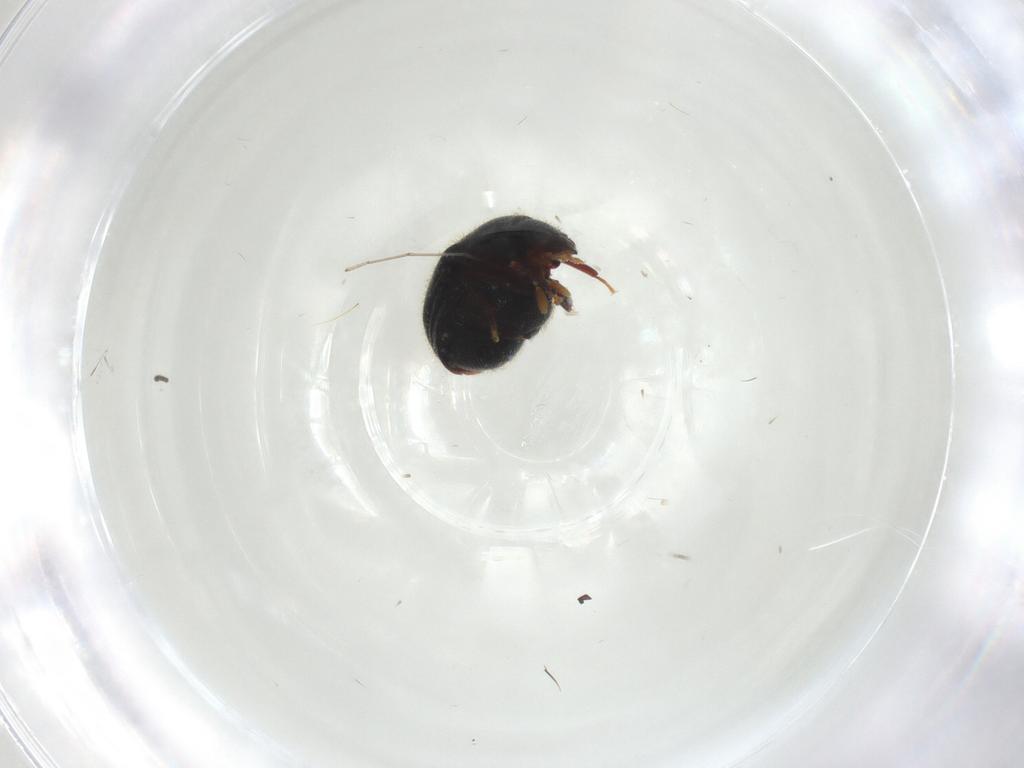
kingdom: Animalia
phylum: Arthropoda
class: Insecta
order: Coleoptera
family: Ptinidae
